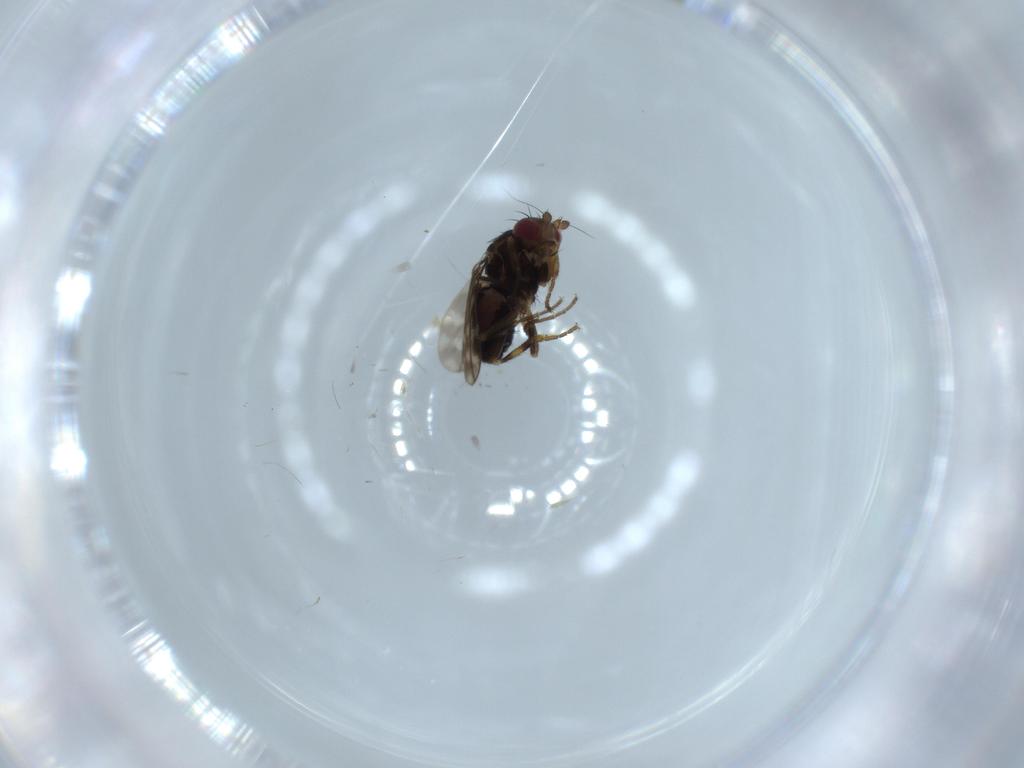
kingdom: Animalia
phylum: Arthropoda
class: Insecta
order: Diptera
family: Sphaeroceridae
